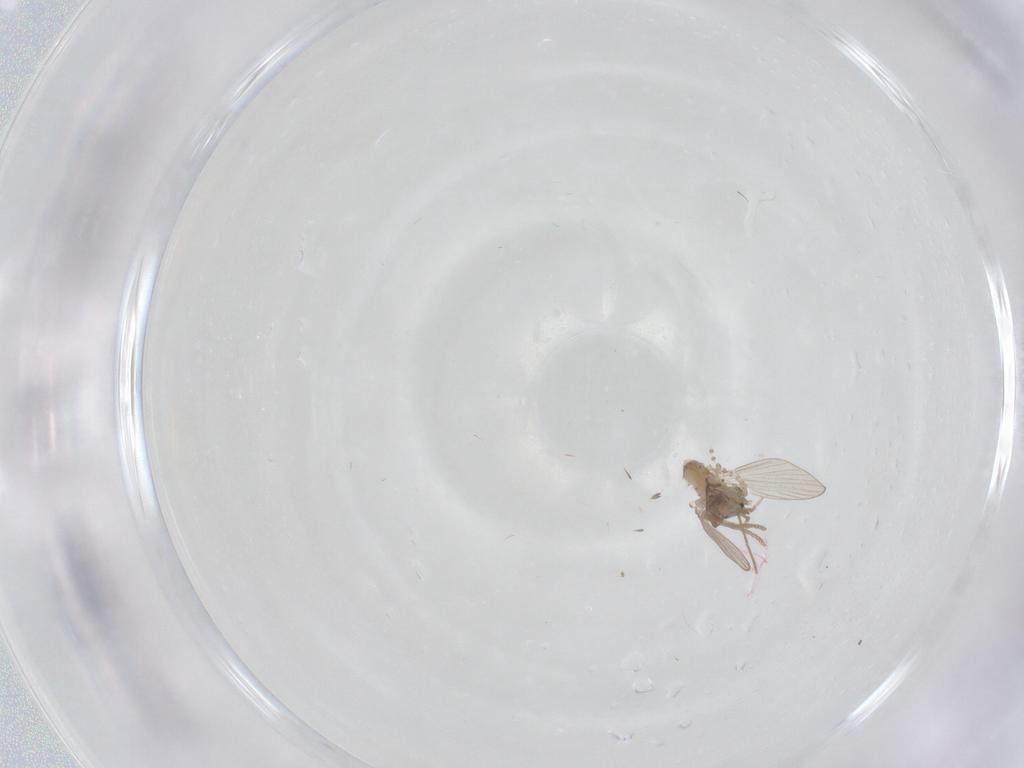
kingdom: Animalia
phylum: Arthropoda
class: Insecta
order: Diptera
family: Psychodidae
